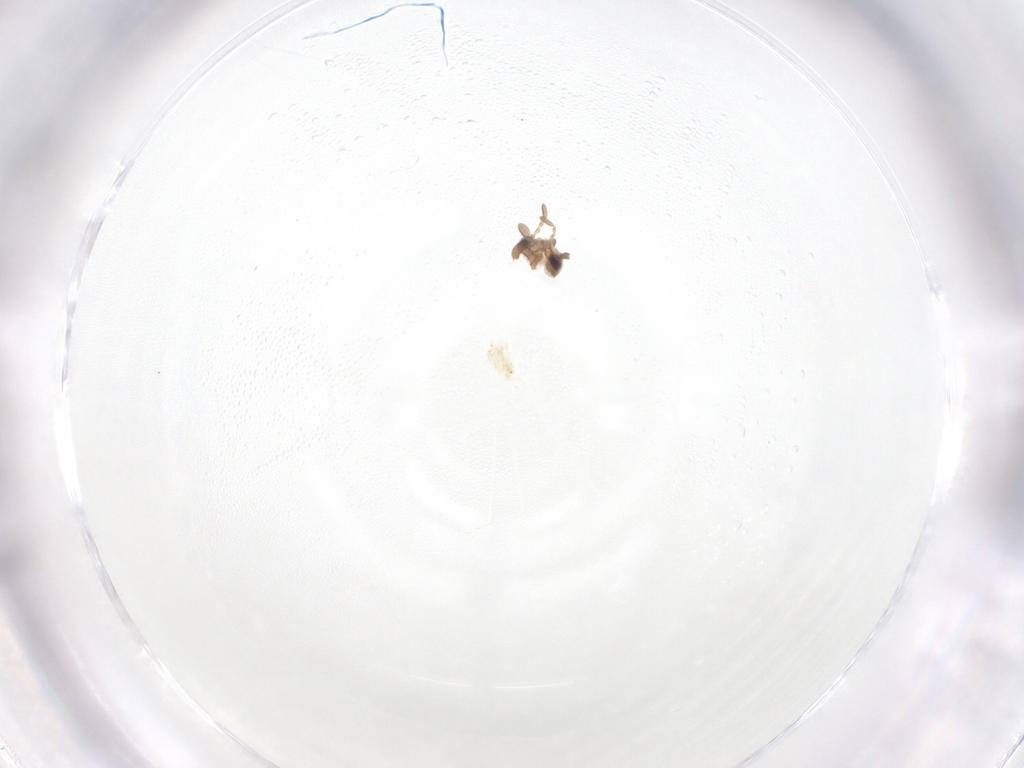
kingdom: Animalia
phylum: Arthropoda
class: Insecta
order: Neuroptera
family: Coniopterygidae
